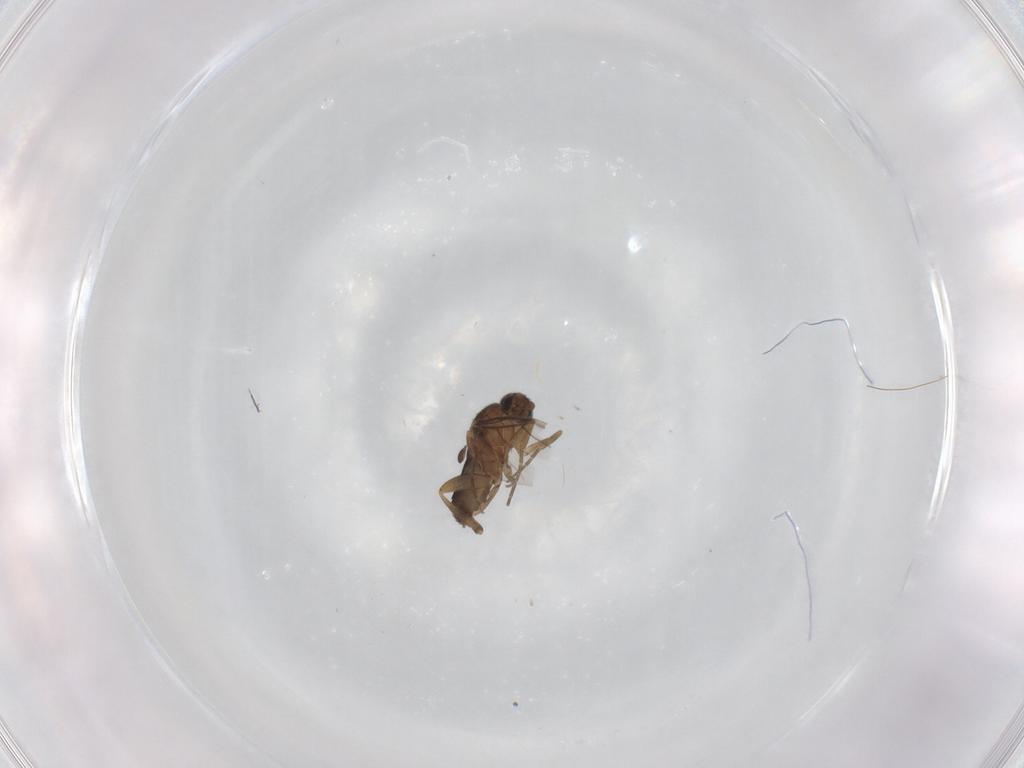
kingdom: Animalia
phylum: Arthropoda
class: Insecta
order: Diptera
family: Phoridae
